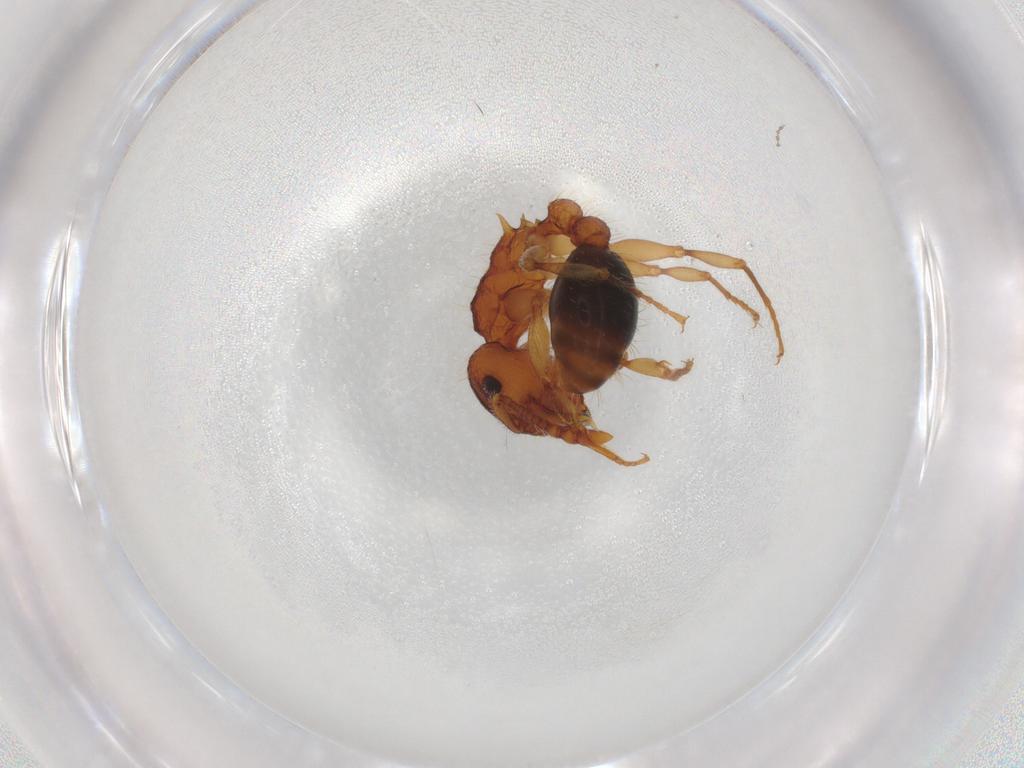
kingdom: Animalia
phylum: Arthropoda
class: Insecta
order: Hymenoptera
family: Formicidae
